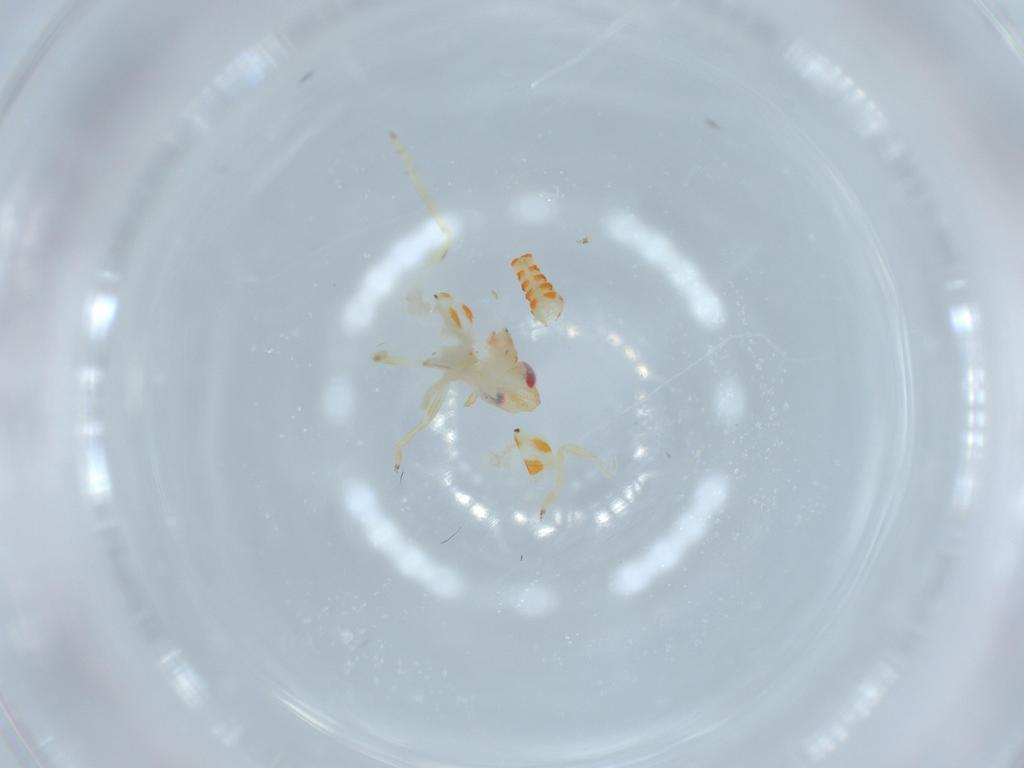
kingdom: Animalia
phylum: Arthropoda
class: Insecta
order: Hemiptera
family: Tropiduchidae
